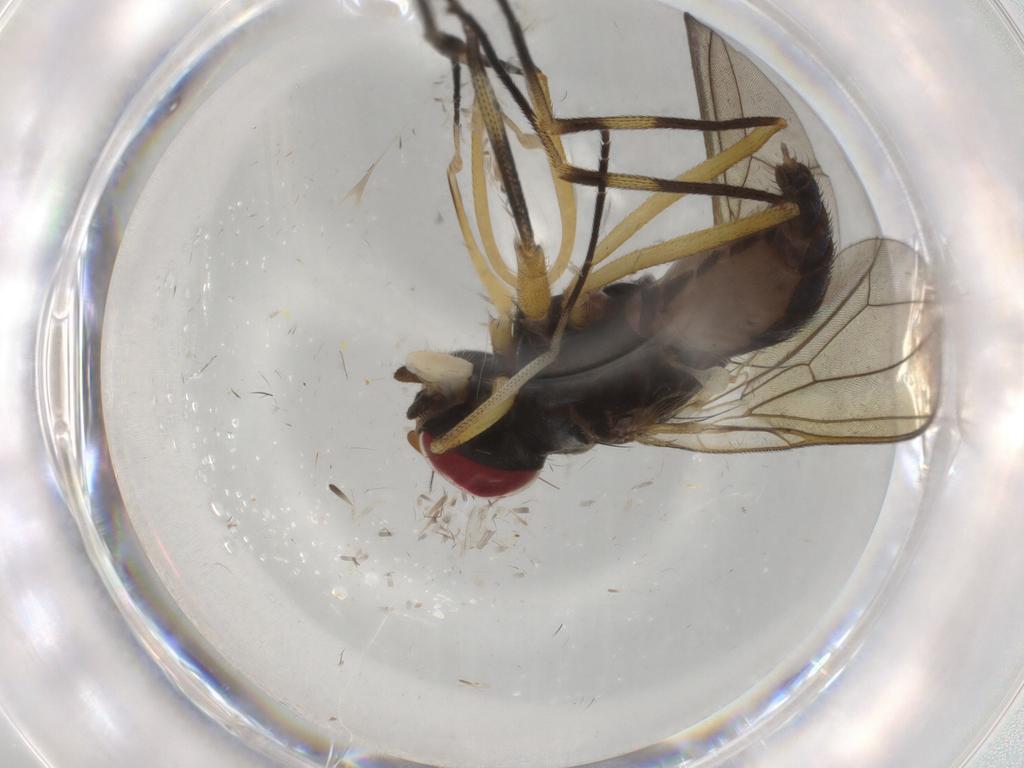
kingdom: Animalia
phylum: Arthropoda
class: Insecta
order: Diptera
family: Heleomyzidae
